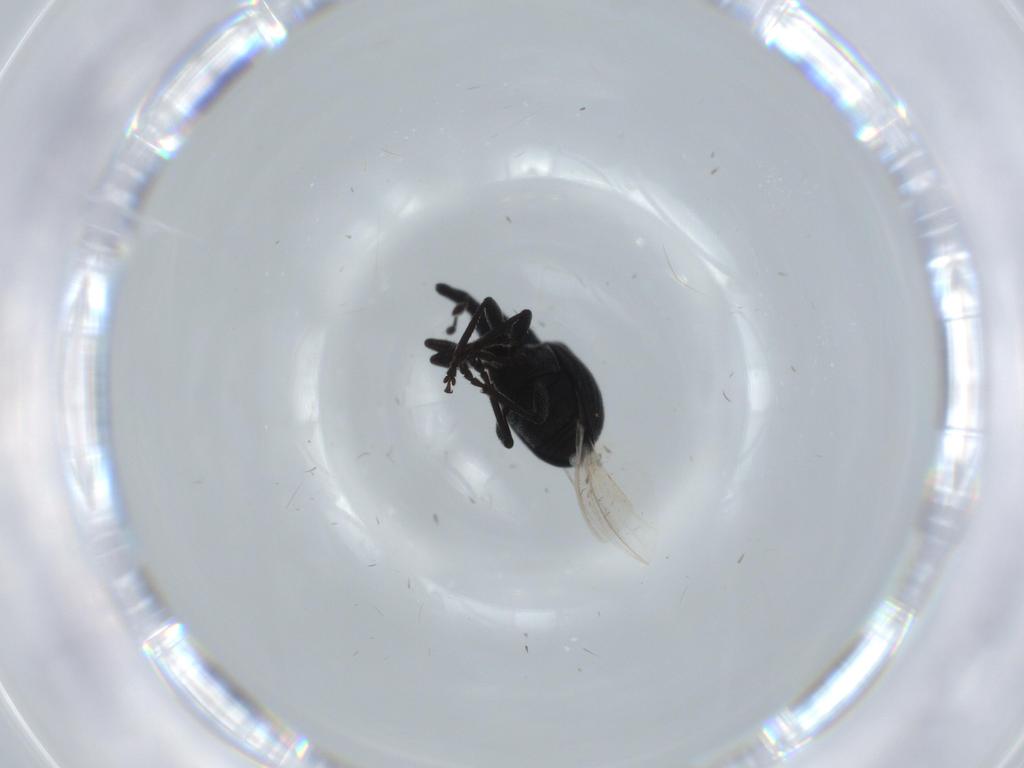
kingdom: Animalia
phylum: Arthropoda
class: Insecta
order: Coleoptera
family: Brentidae
